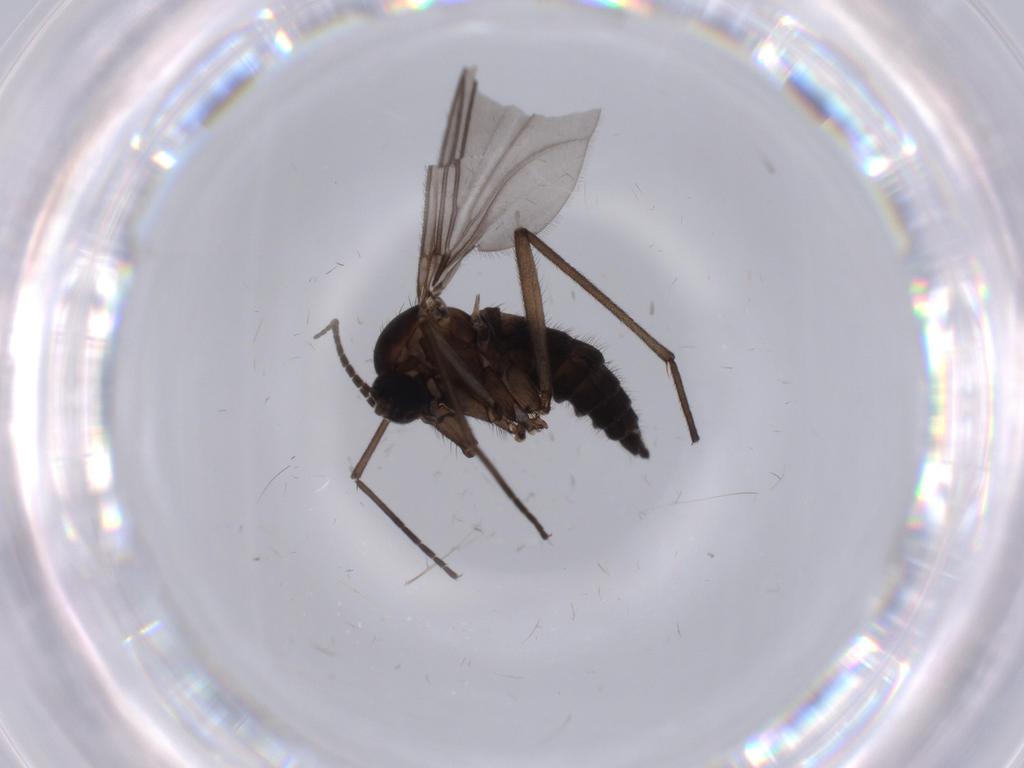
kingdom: Animalia
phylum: Arthropoda
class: Insecta
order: Diptera
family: Sciaridae
